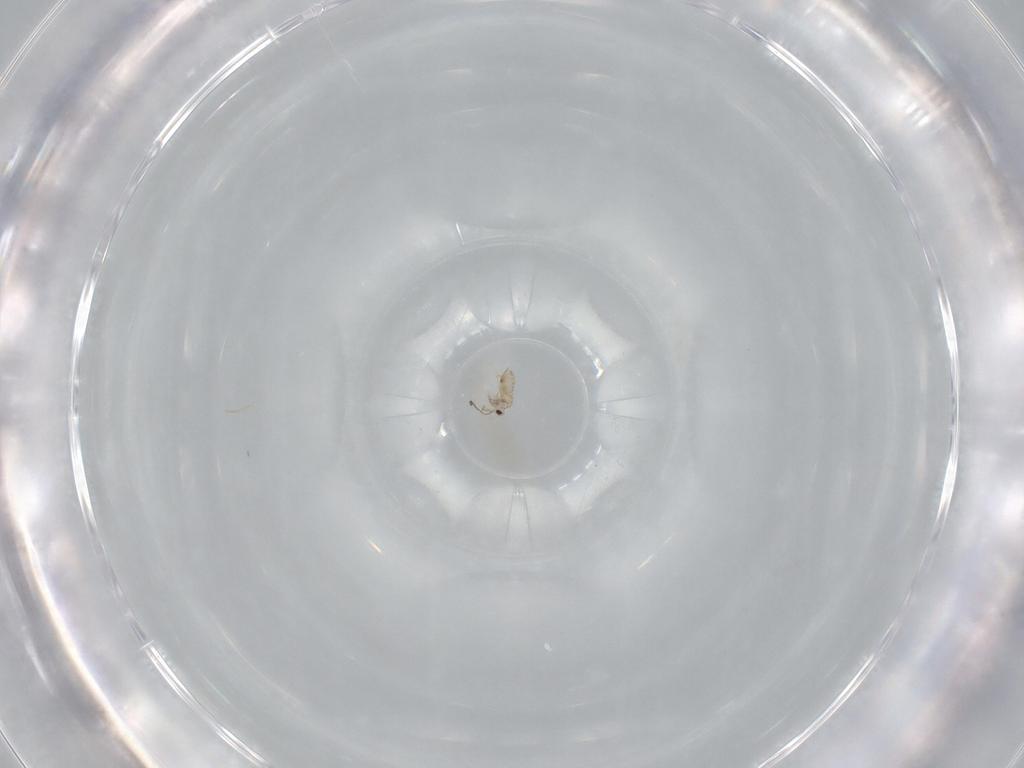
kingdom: Animalia
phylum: Arthropoda
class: Insecta
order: Hymenoptera
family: Mymaridae
